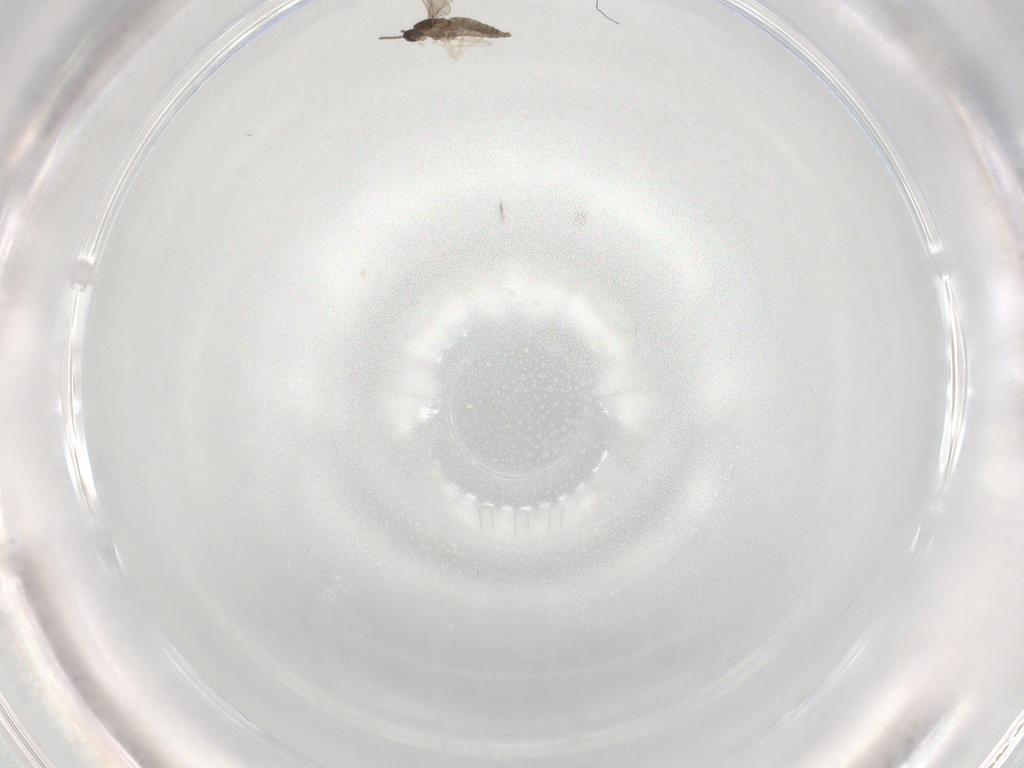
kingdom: Animalia
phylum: Arthropoda
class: Insecta
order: Diptera
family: Cecidomyiidae
